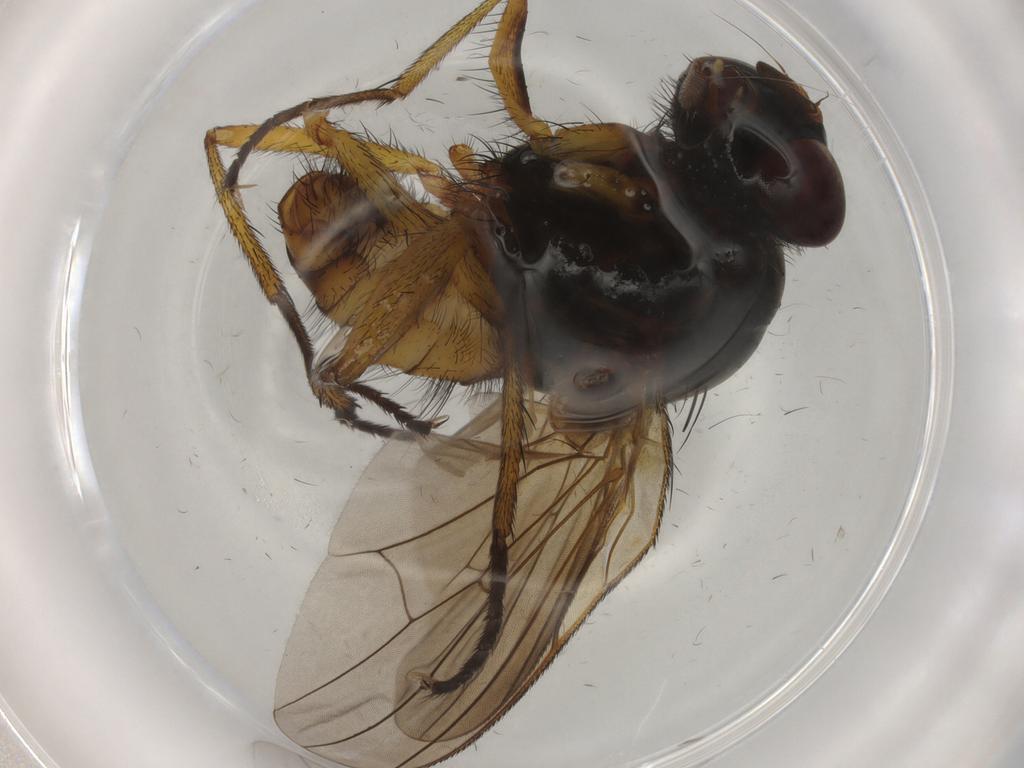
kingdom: Animalia
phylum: Arthropoda
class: Insecta
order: Diptera
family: Anthomyiidae
